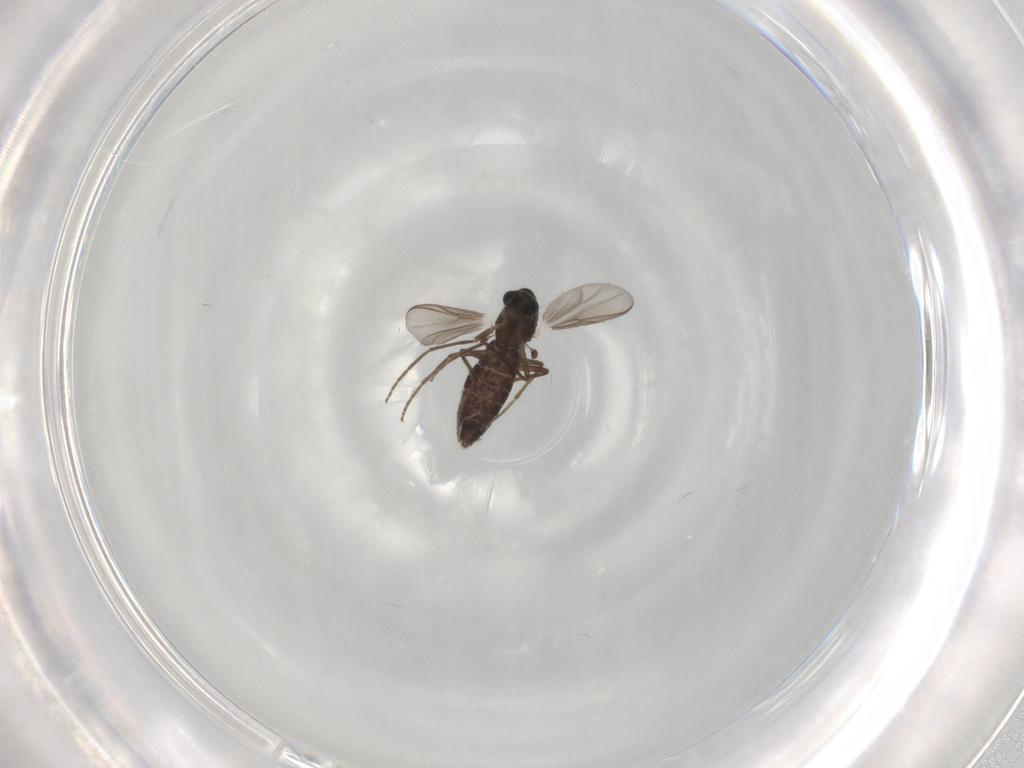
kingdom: Animalia
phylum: Arthropoda
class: Insecta
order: Diptera
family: Chironomidae
